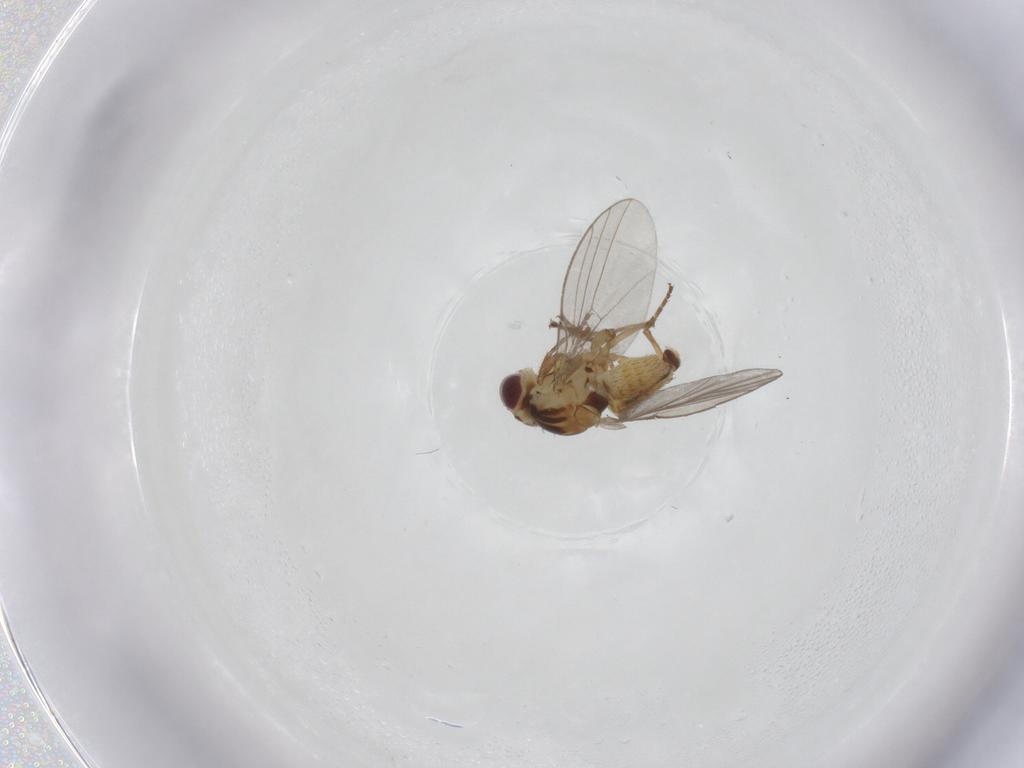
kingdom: Animalia
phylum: Arthropoda
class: Insecta
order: Diptera
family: Agromyzidae
